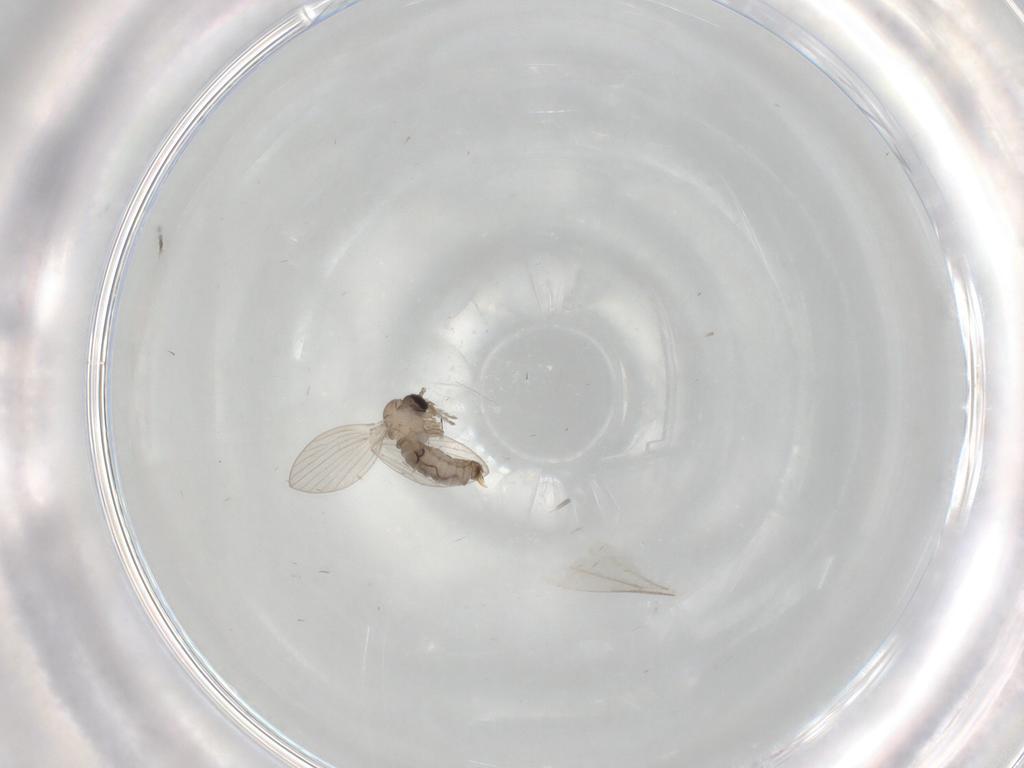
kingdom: Animalia
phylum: Arthropoda
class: Insecta
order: Diptera
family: Psychodidae
